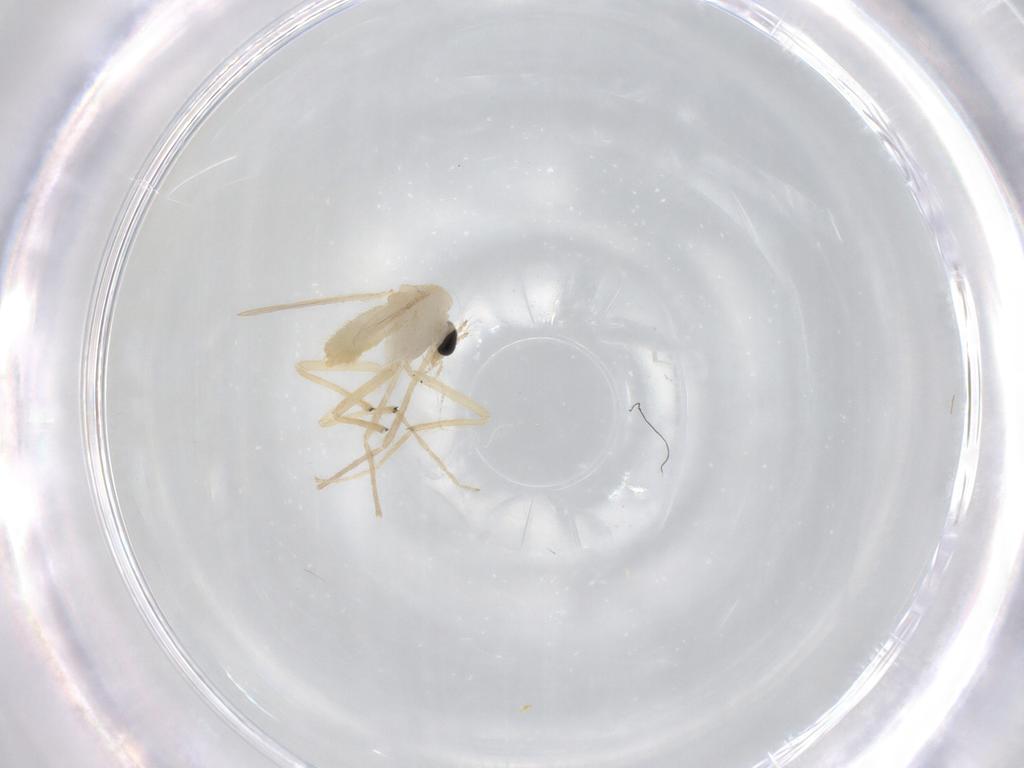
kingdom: Animalia
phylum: Arthropoda
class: Insecta
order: Diptera
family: Chironomidae
